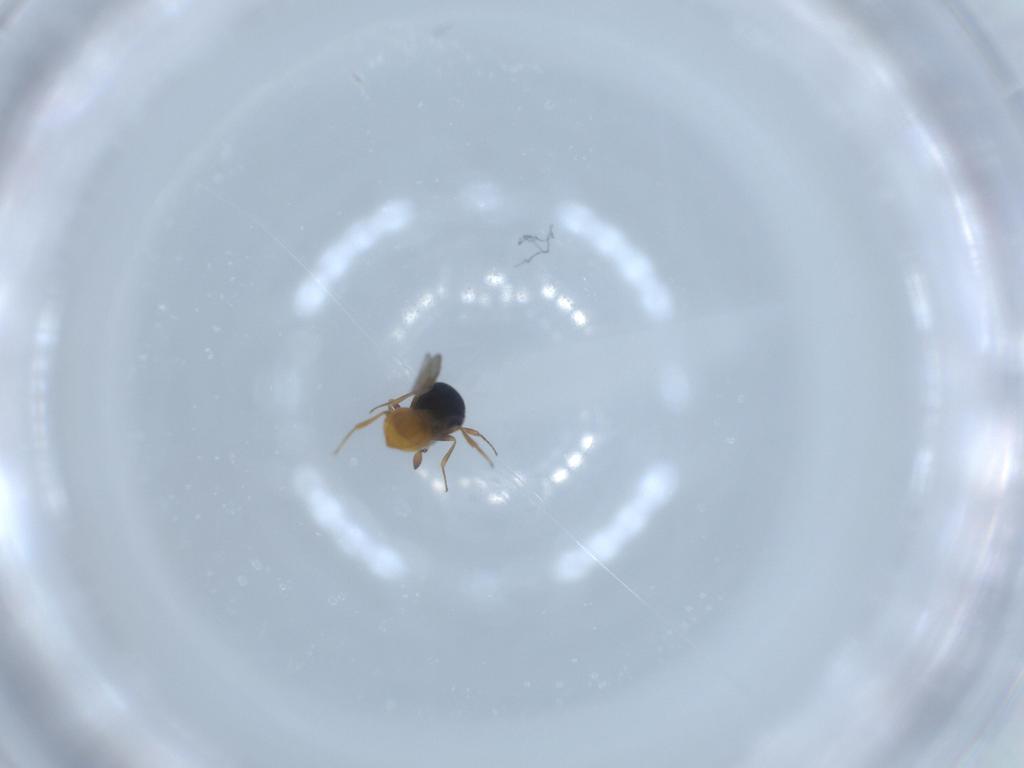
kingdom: Animalia
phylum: Arthropoda
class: Insecta
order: Hymenoptera
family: Scelionidae
